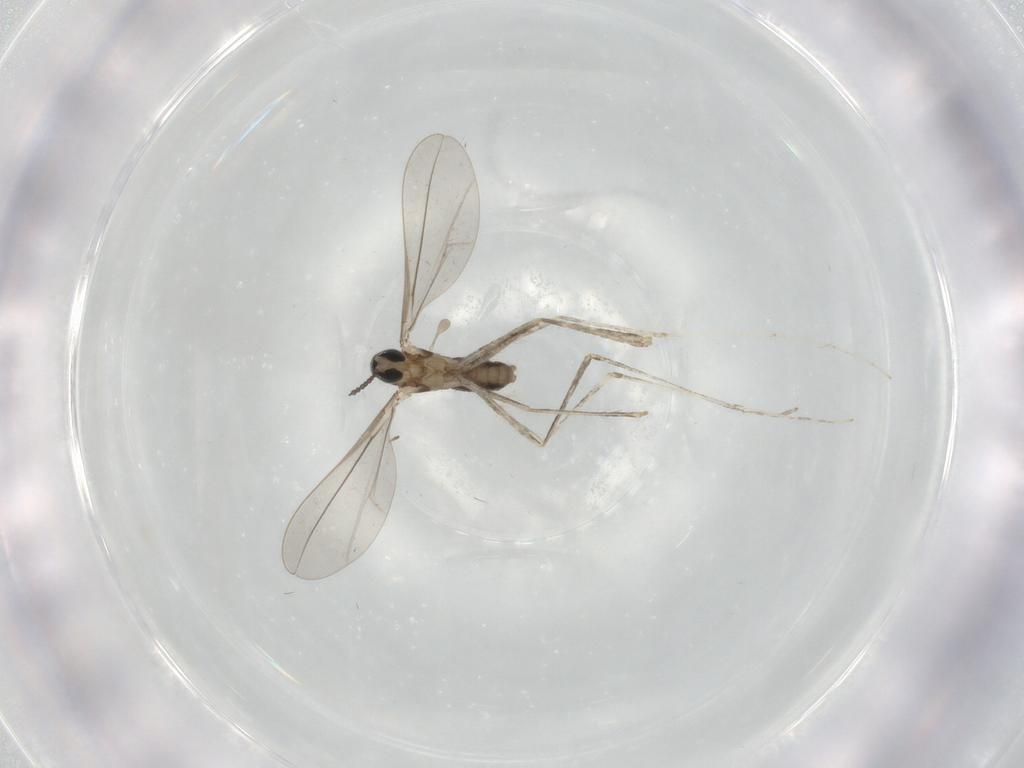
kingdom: Animalia
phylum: Arthropoda
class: Insecta
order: Diptera
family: Cecidomyiidae
